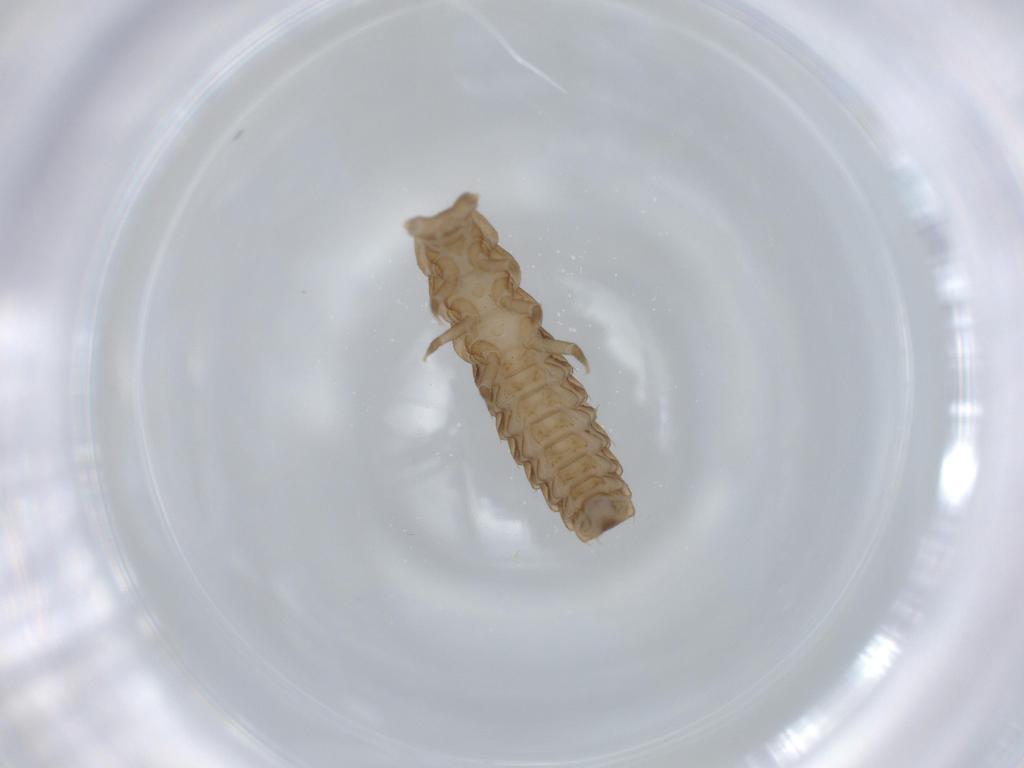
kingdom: Animalia
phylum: Arthropoda
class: Insecta
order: Coleoptera
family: Lycidae
